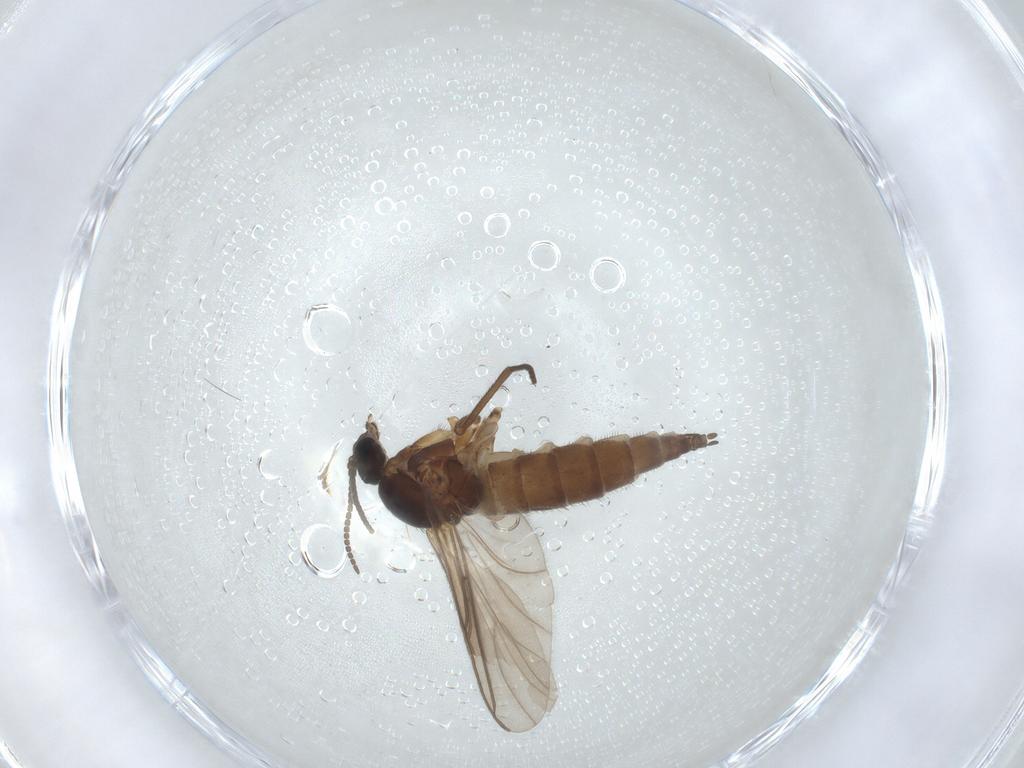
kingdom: Animalia
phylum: Arthropoda
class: Insecta
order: Diptera
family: Sciaridae
